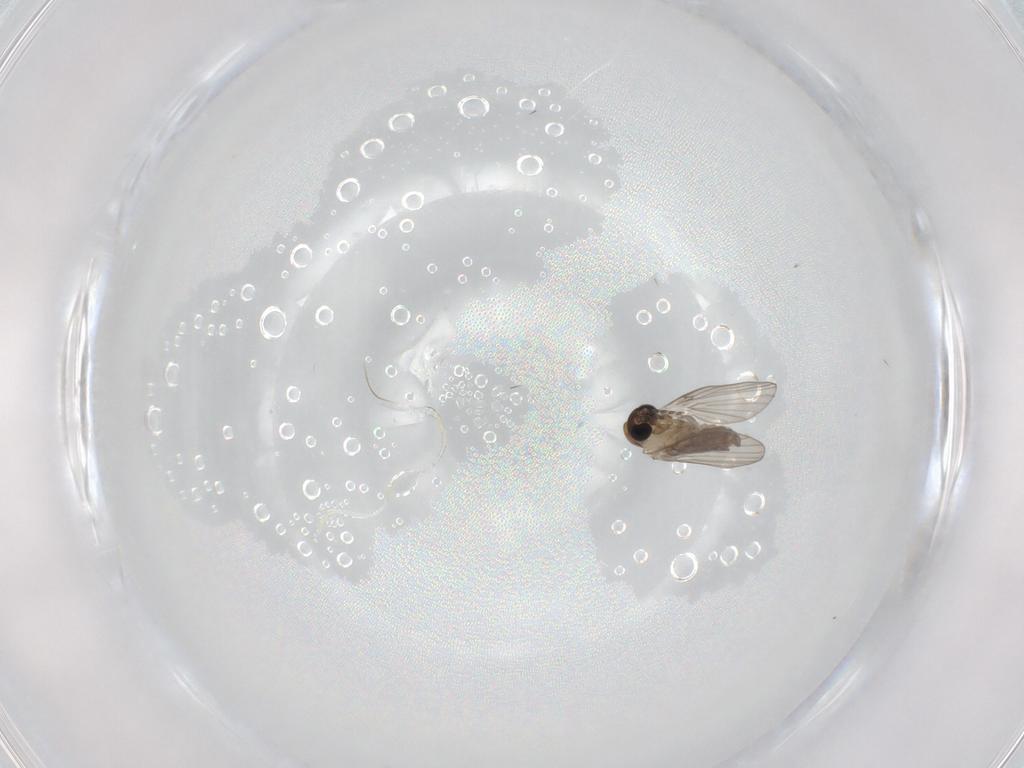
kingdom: Animalia
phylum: Arthropoda
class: Insecta
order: Diptera
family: Psychodidae
